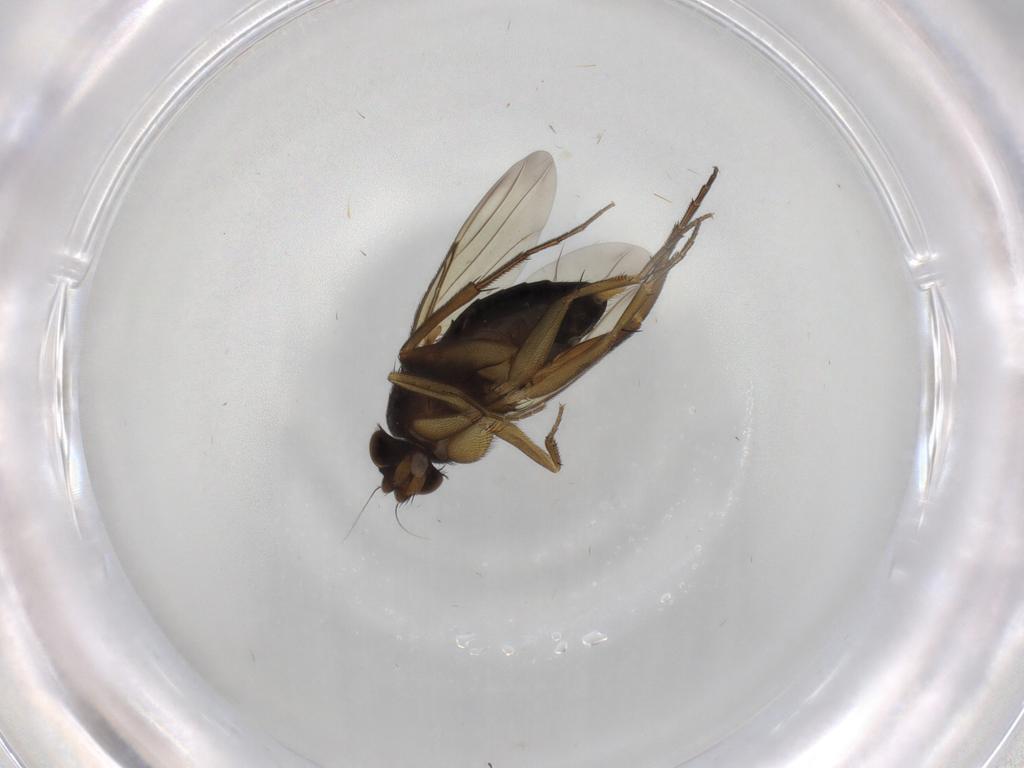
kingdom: Animalia
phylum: Arthropoda
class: Insecta
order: Diptera
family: Phoridae
